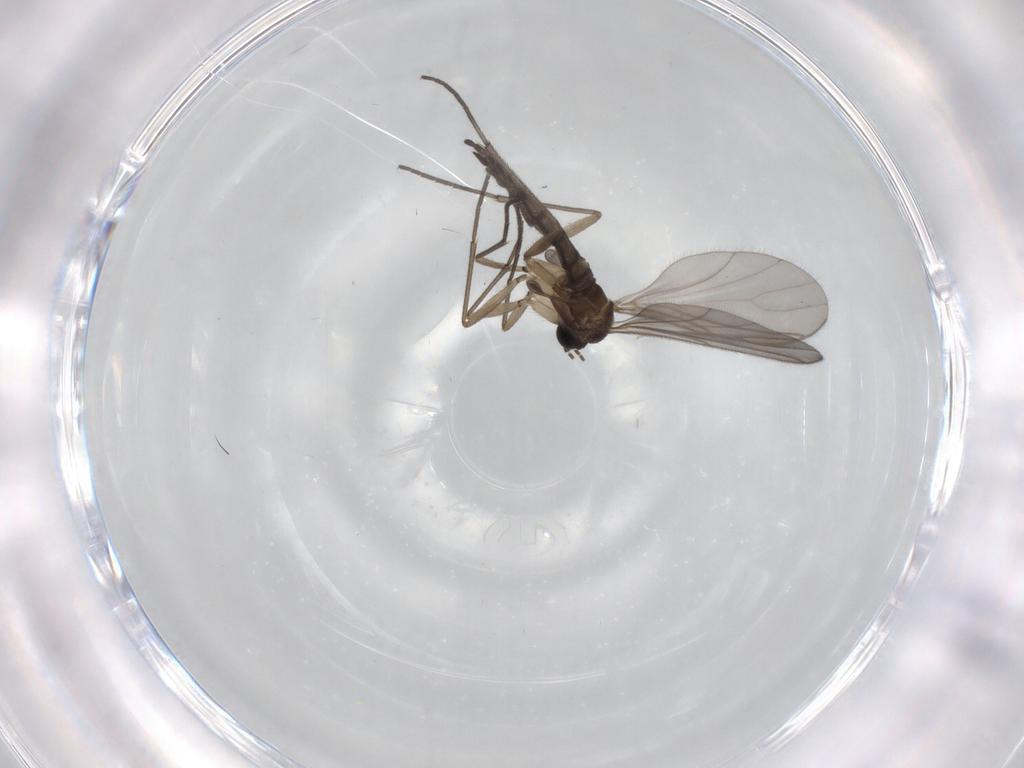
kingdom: Animalia
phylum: Arthropoda
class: Insecta
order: Diptera
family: Sciaridae
